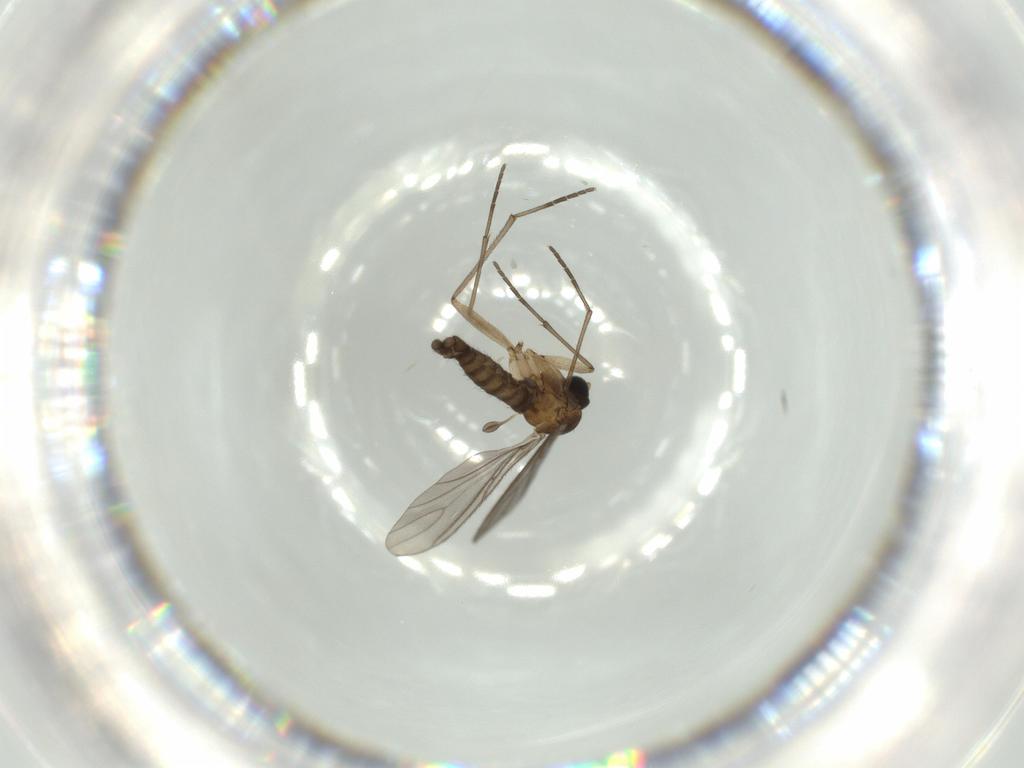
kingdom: Animalia
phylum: Arthropoda
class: Insecta
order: Diptera
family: Sciaridae
